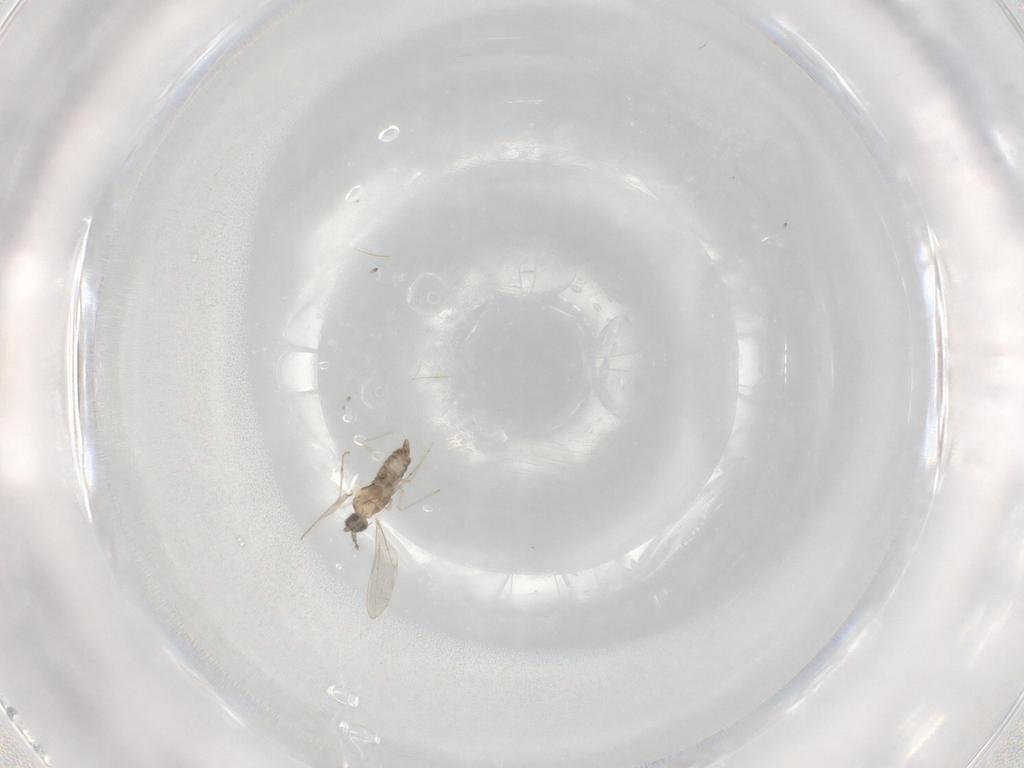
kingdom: Animalia
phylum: Arthropoda
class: Insecta
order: Diptera
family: Cecidomyiidae
